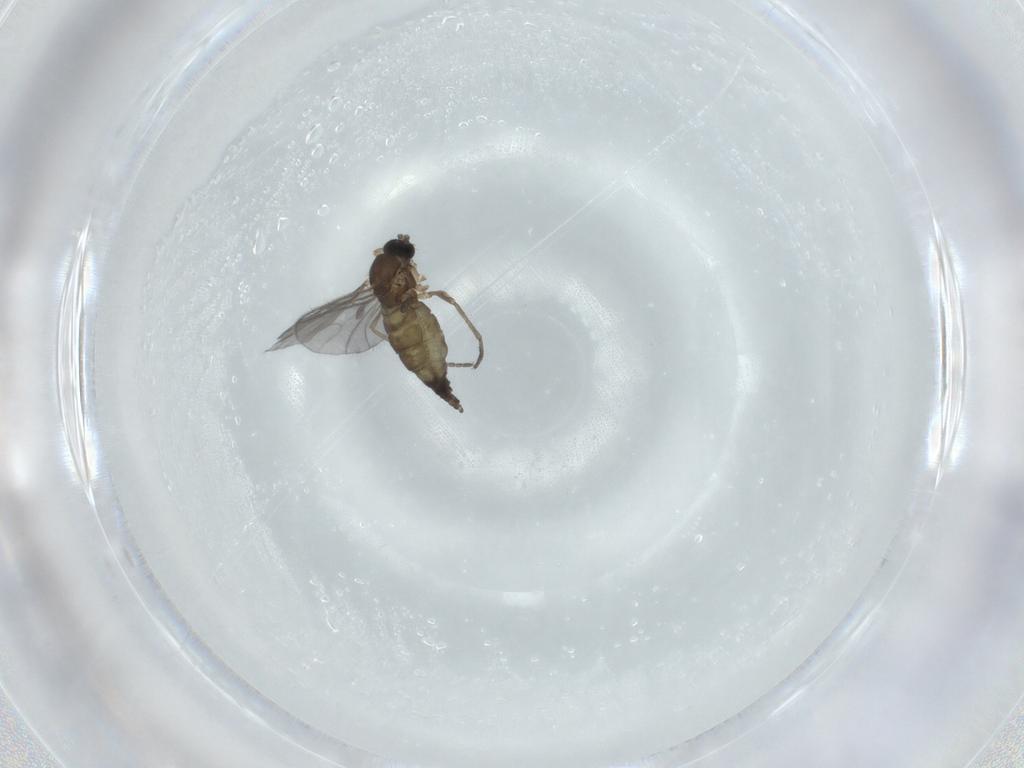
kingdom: Animalia
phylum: Arthropoda
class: Insecta
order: Diptera
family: Sciaridae
